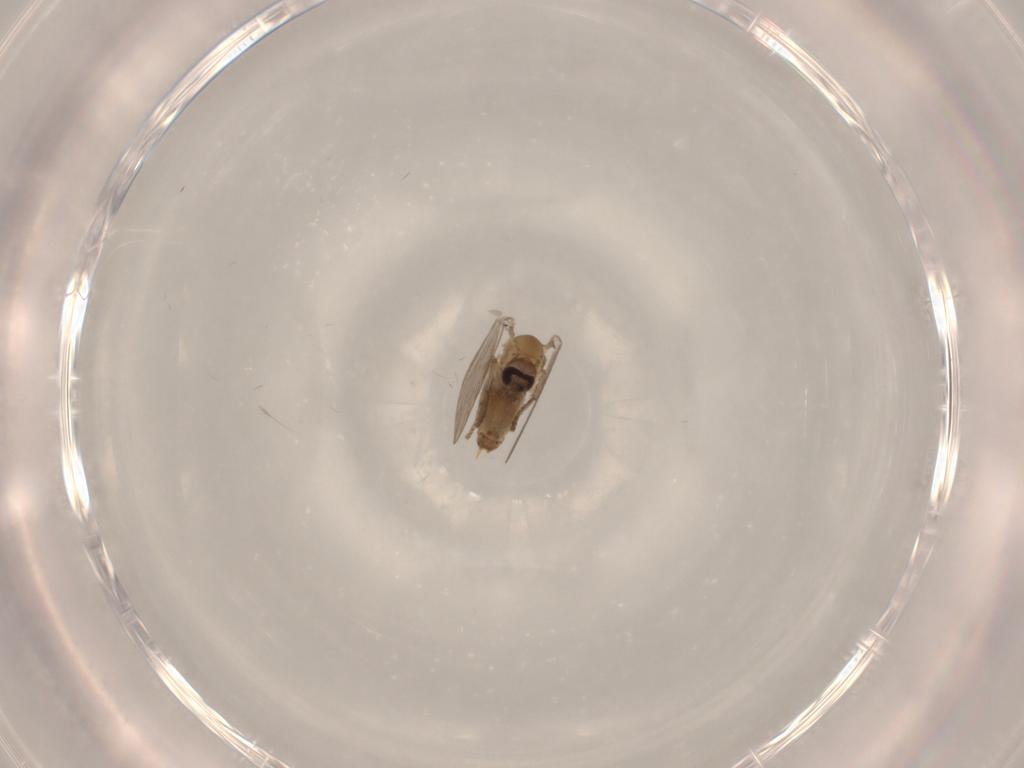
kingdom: Animalia
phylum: Arthropoda
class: Insecta
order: Diptera
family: Psychodidae
